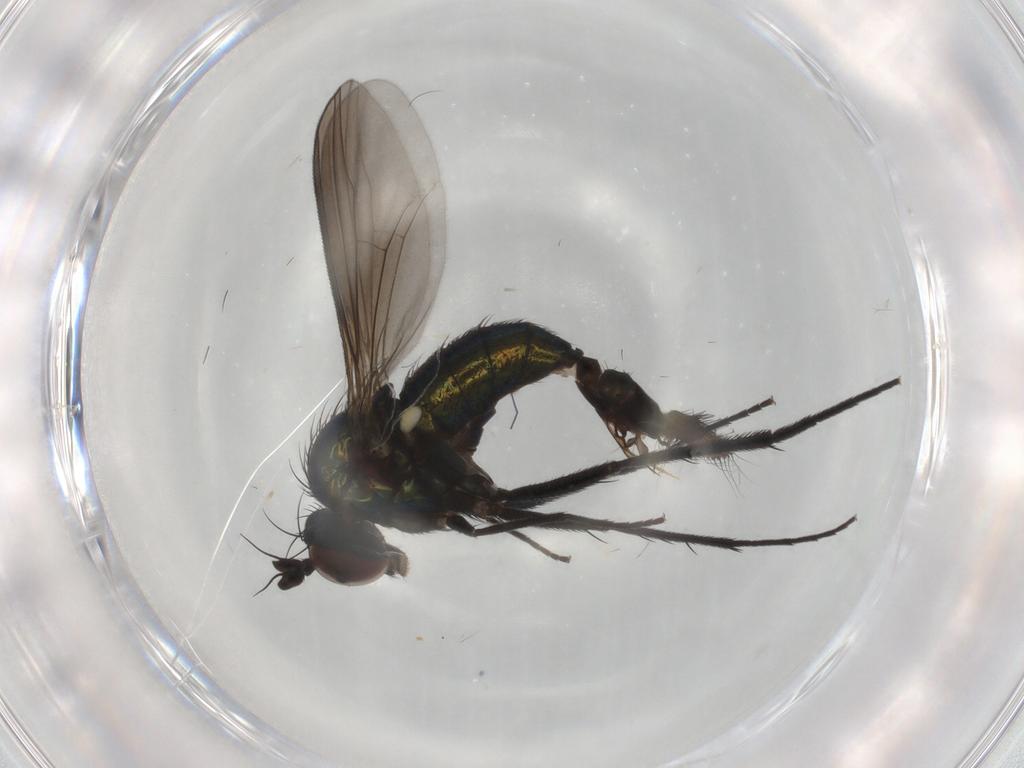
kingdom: Animalia
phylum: Arthropoda
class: Insecta
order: Diptera
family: Dolichopodidae
